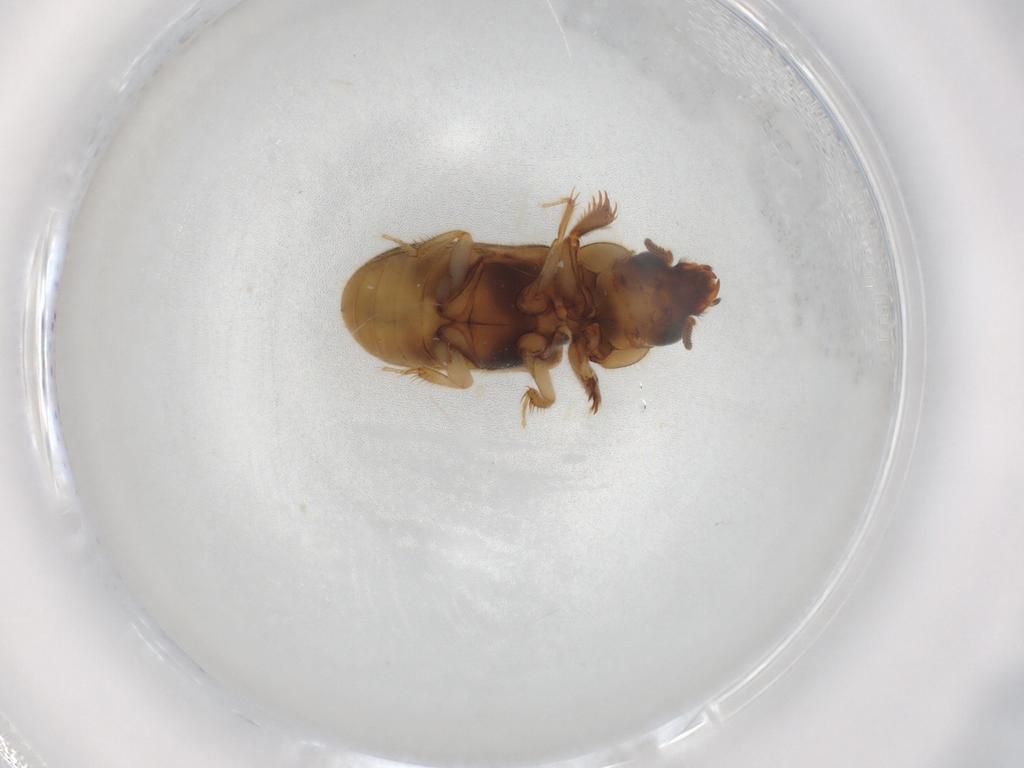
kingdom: Animalia
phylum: Arthropoda
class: Insecta
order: Coleoptera
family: Heteroceridae
